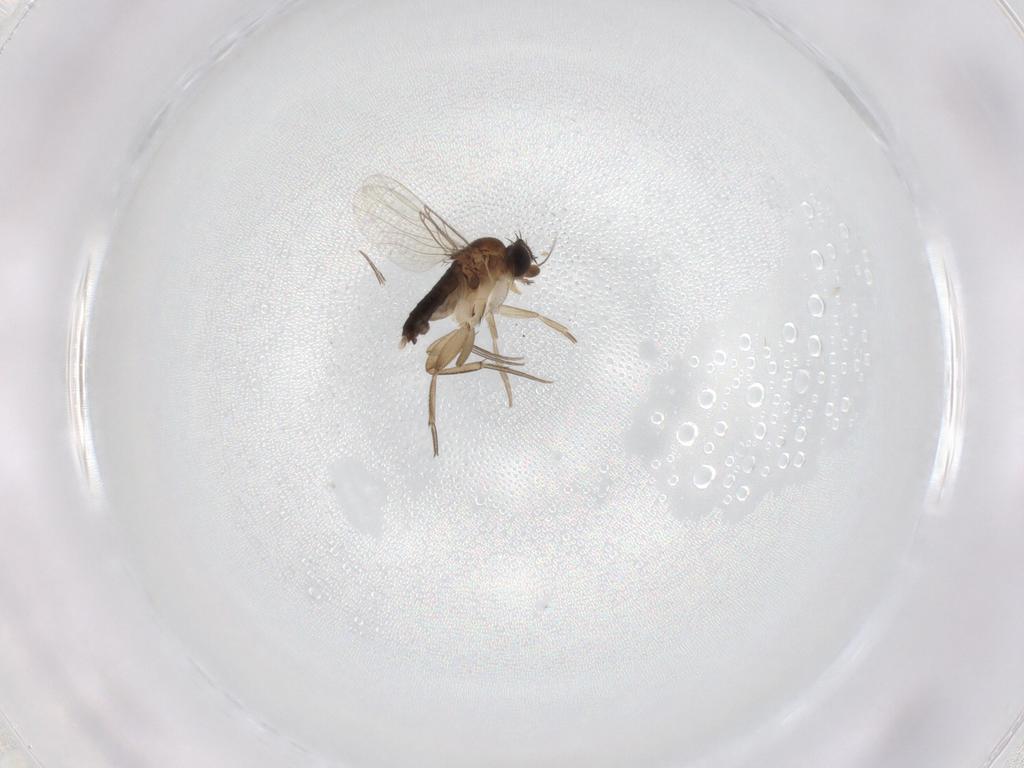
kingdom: Animalia
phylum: Arthropoda
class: Insecta
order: Diptera
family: Phoridae
